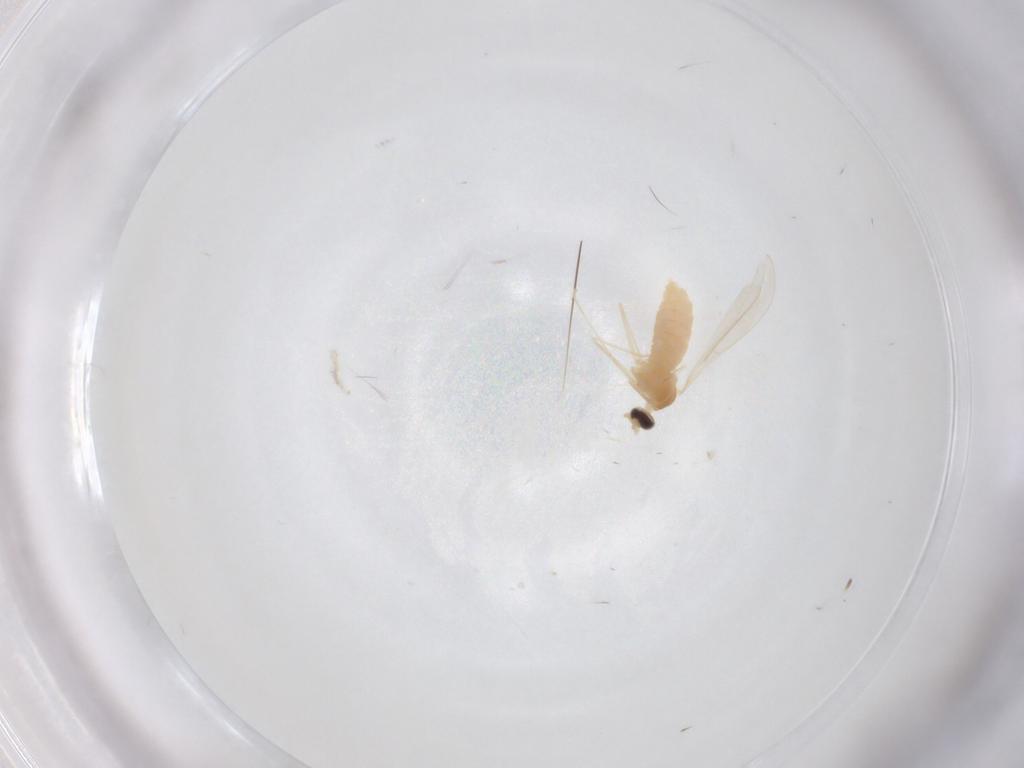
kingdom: Animalia
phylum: Arthropoda
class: Insecta
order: Diptera
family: Cecidomyiidae
